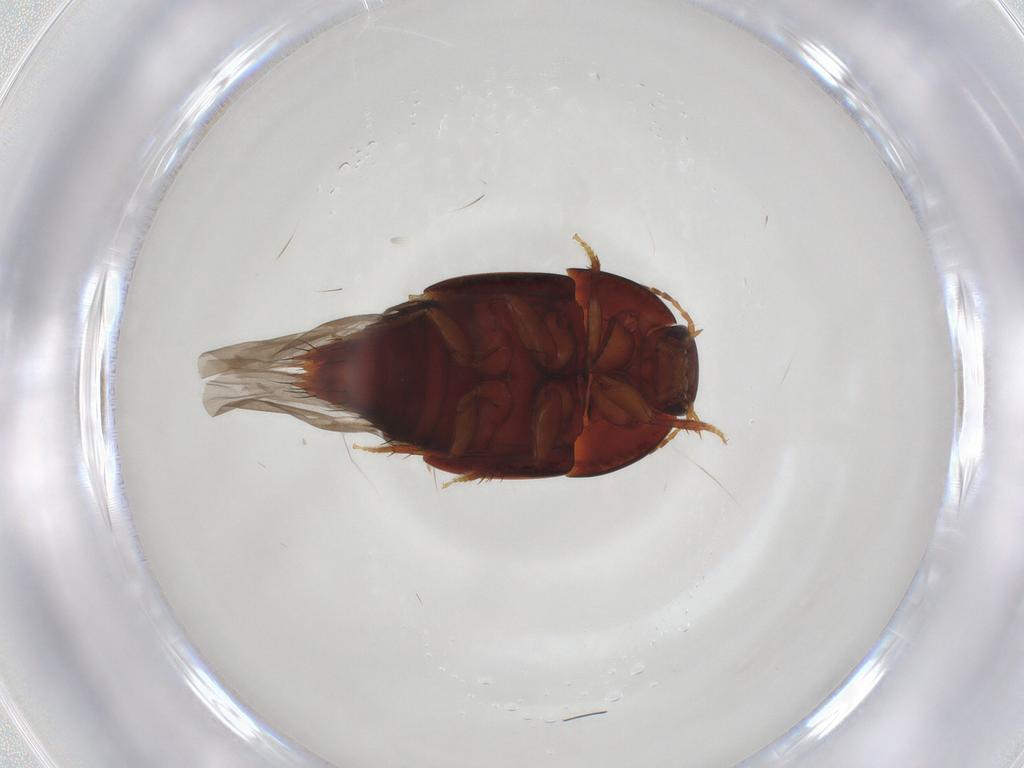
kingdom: Animalia
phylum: Arthropoda
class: Insecta
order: Coleoptera
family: Staphylinidae
